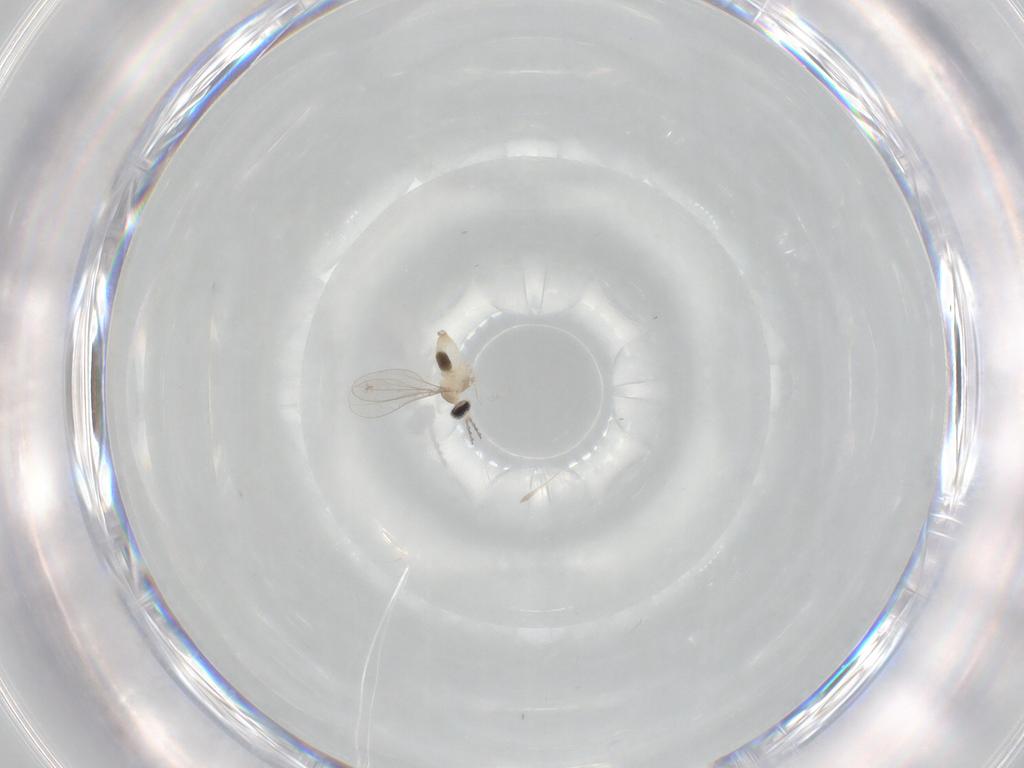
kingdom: Animalia
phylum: Arthropoda
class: Insecta
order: Diptera
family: Cecidomyiidae
